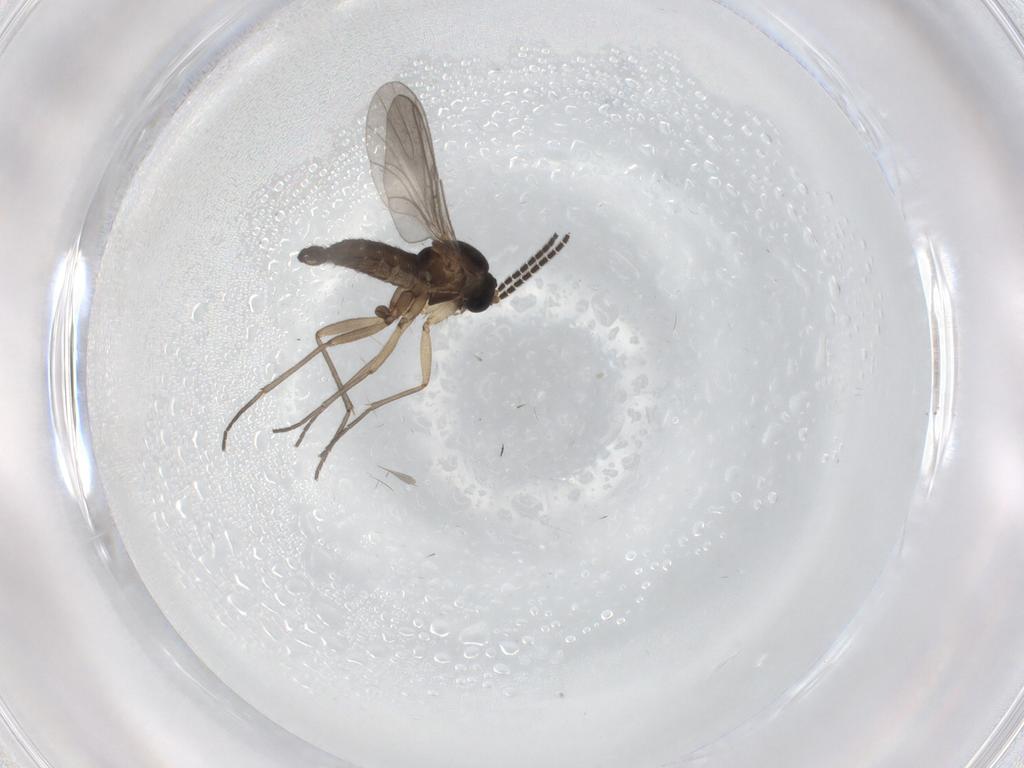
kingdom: Animalia
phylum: Arthropoda
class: Insecta
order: Diptera
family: Sciaridae
